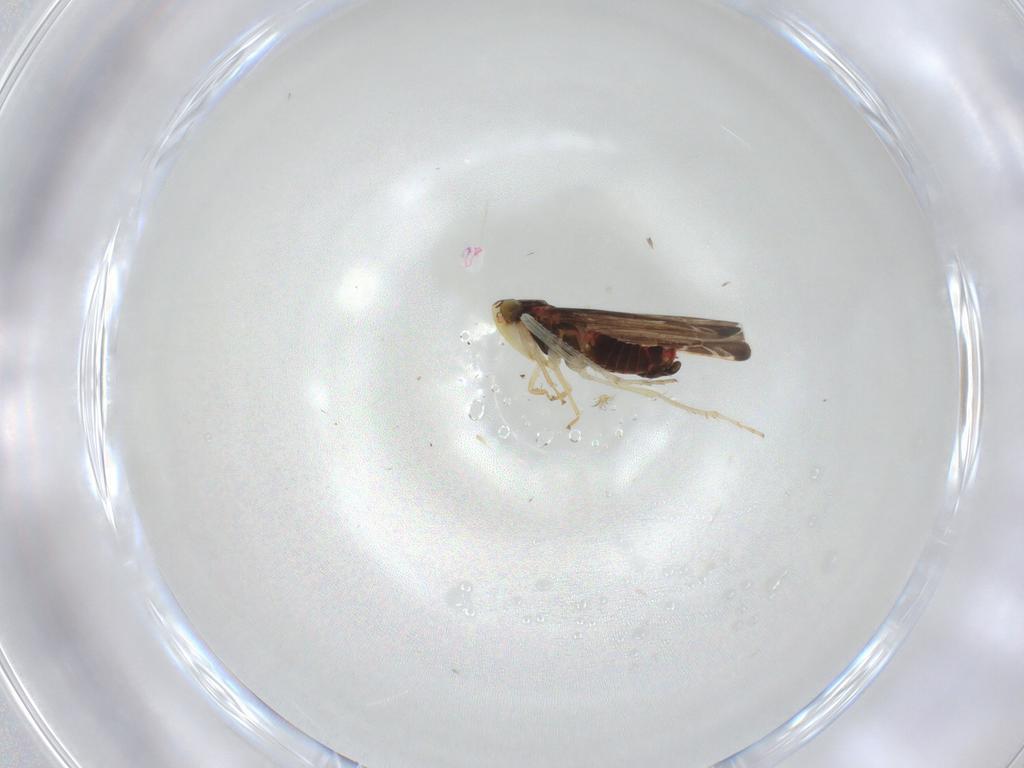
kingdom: Animalia
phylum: Arthropoda
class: Insecta
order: Hemiptera
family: Cicadellidae
